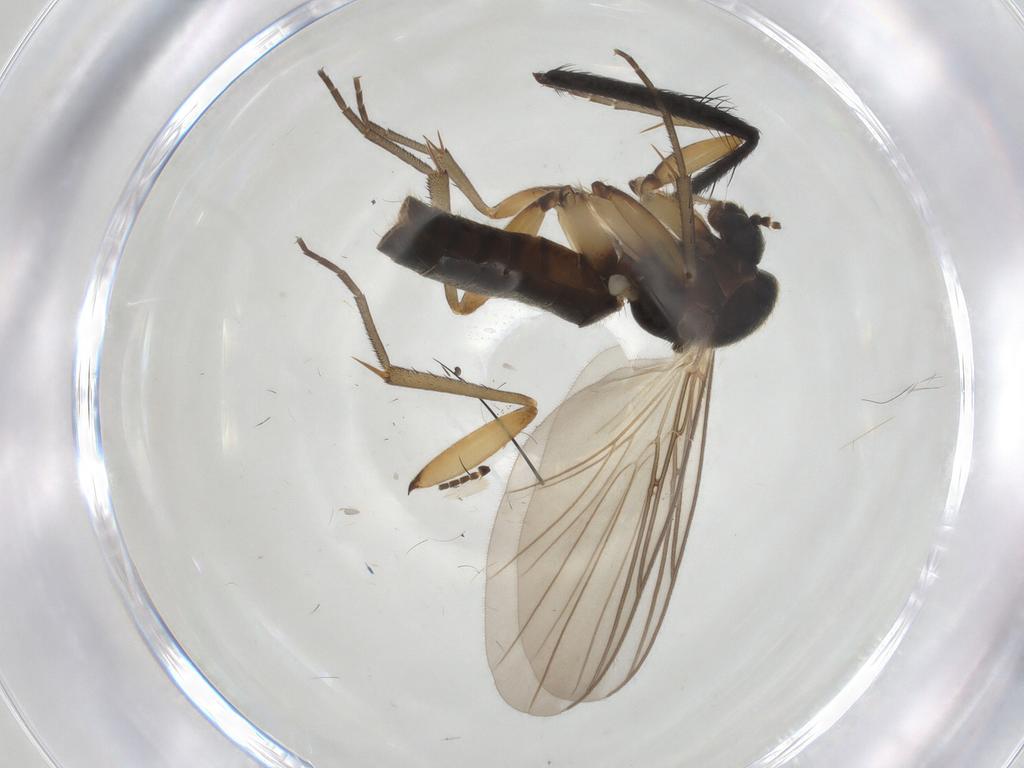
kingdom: Animalia
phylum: Arthropoda
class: Insecta
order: Diptera
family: Mycetophilidae
